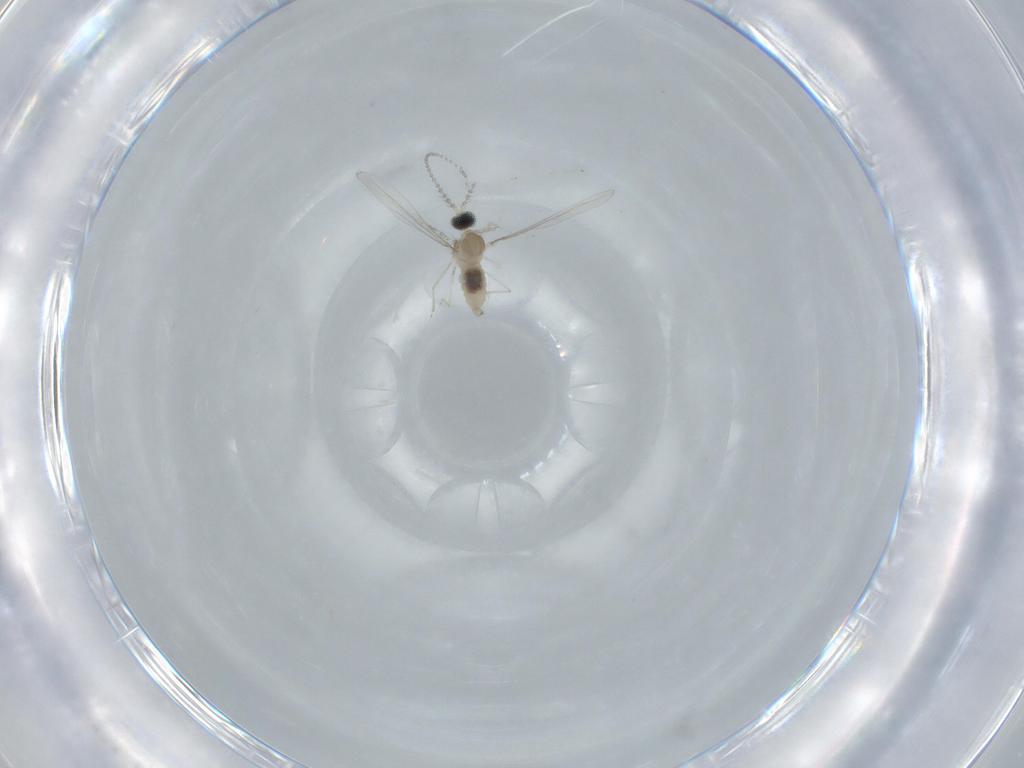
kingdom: Animalia
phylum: Arthropoda
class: Insecta
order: Diptera
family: Cecidomyiidae
